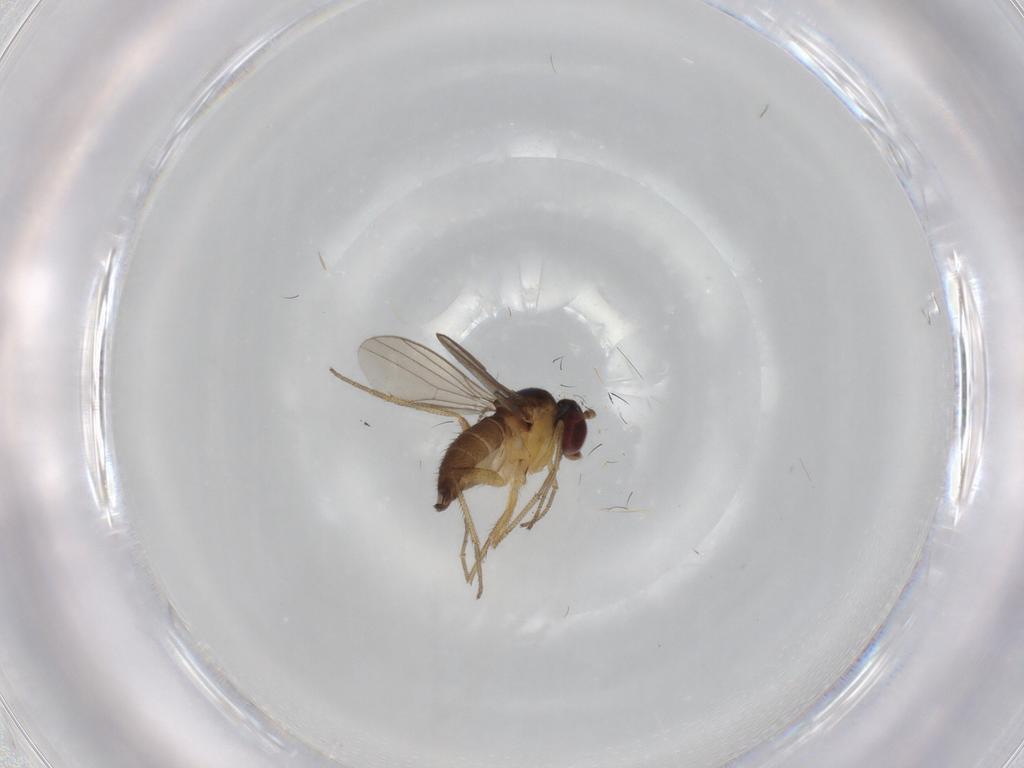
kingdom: Animalia
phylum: Arthropoda
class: Insecta
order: Diptera
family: Dolichopodidae
